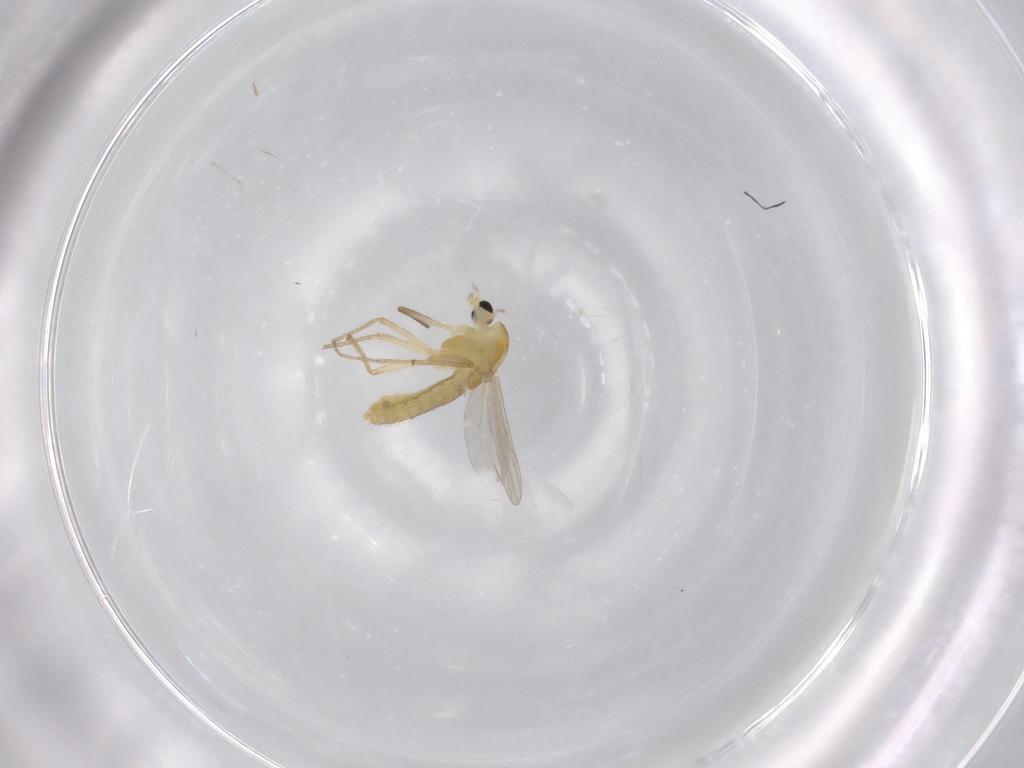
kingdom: Animalia
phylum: Arthropoda
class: Insecta
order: Diptera
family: Chironomidae
